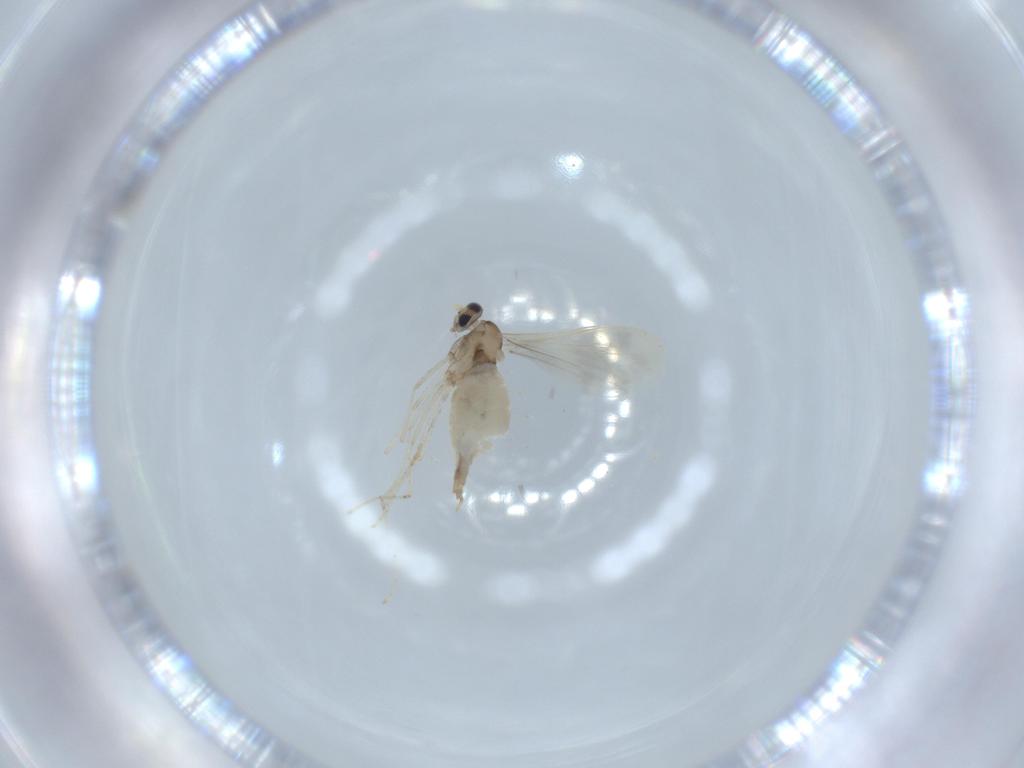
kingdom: Animalia
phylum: Arthropoda
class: Insecta
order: Diptera
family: Cecidomyiidae
